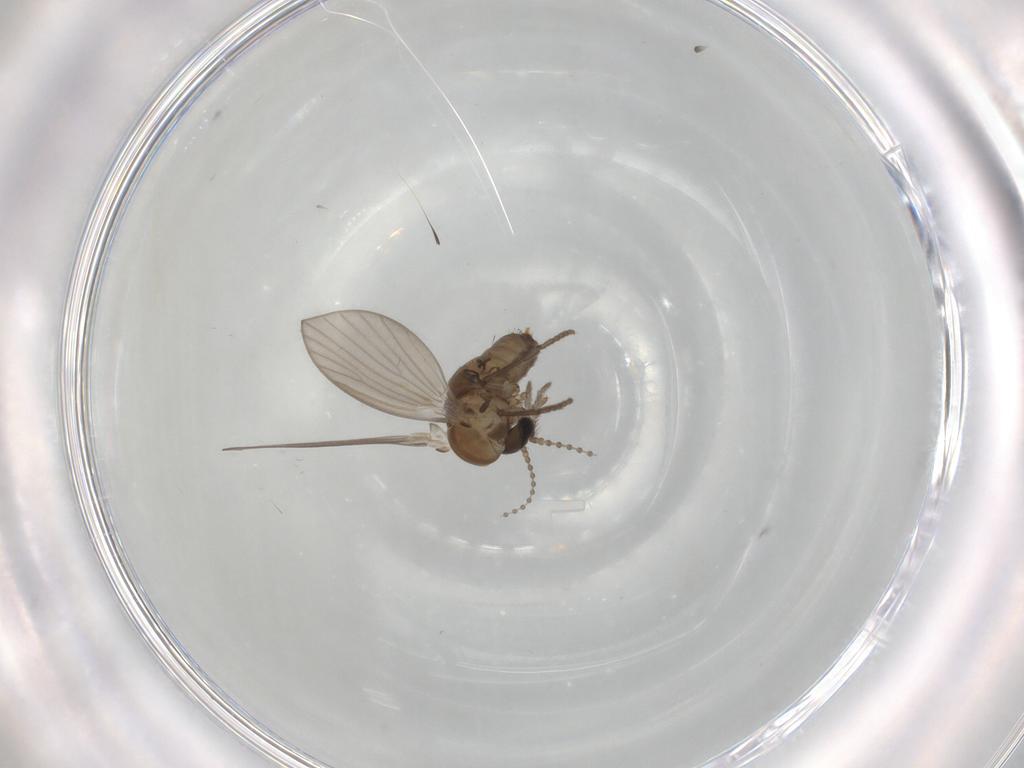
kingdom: Animalia
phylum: Arthropoda
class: Insecta
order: Diptera
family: Psychodidae
